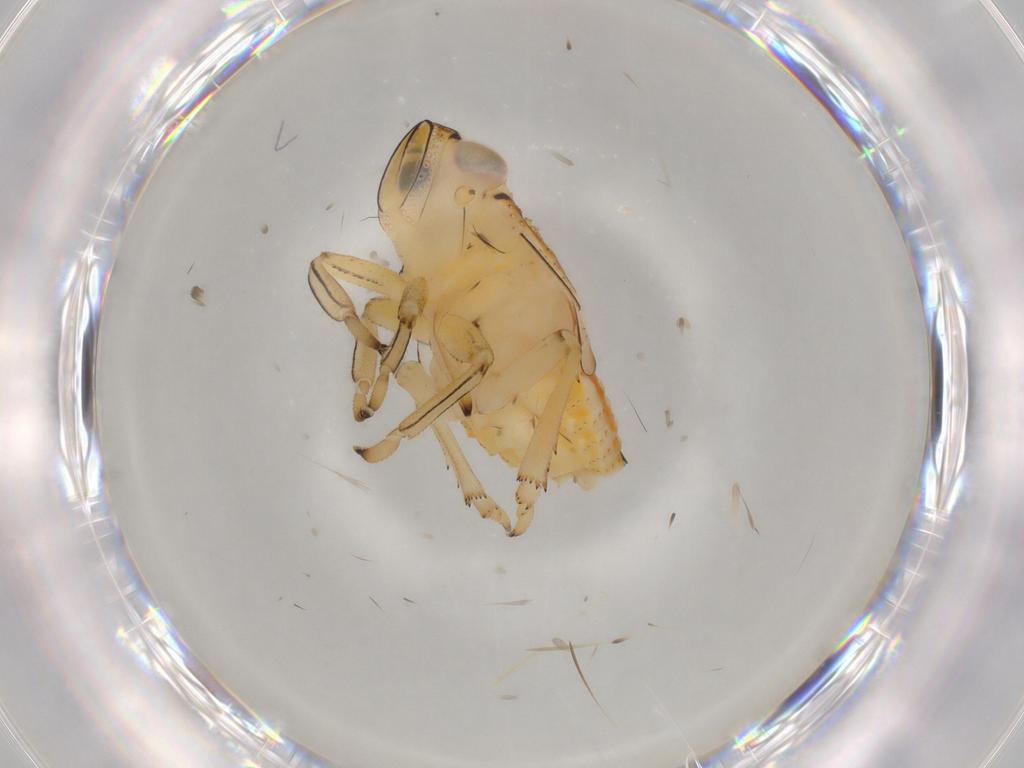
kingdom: Animalia
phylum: Arthropoda
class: Insecta
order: Hemiptera
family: Issidae
